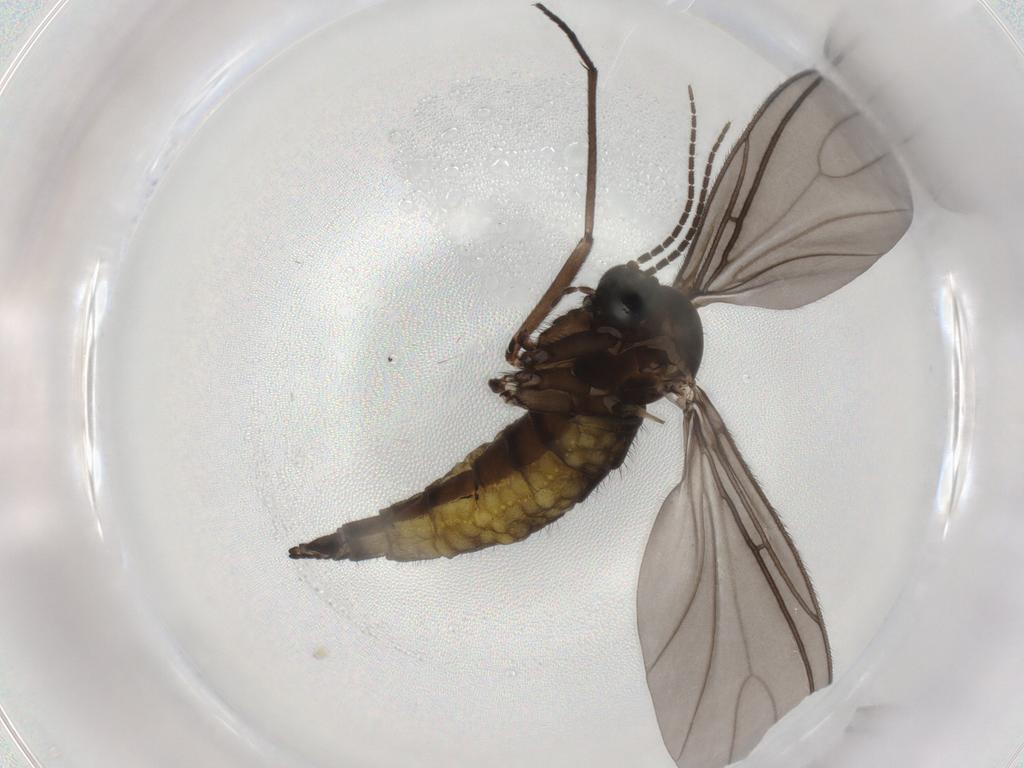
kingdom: Animalia
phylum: Arthropoda
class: Insecta
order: Diptera
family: Sciaridae
